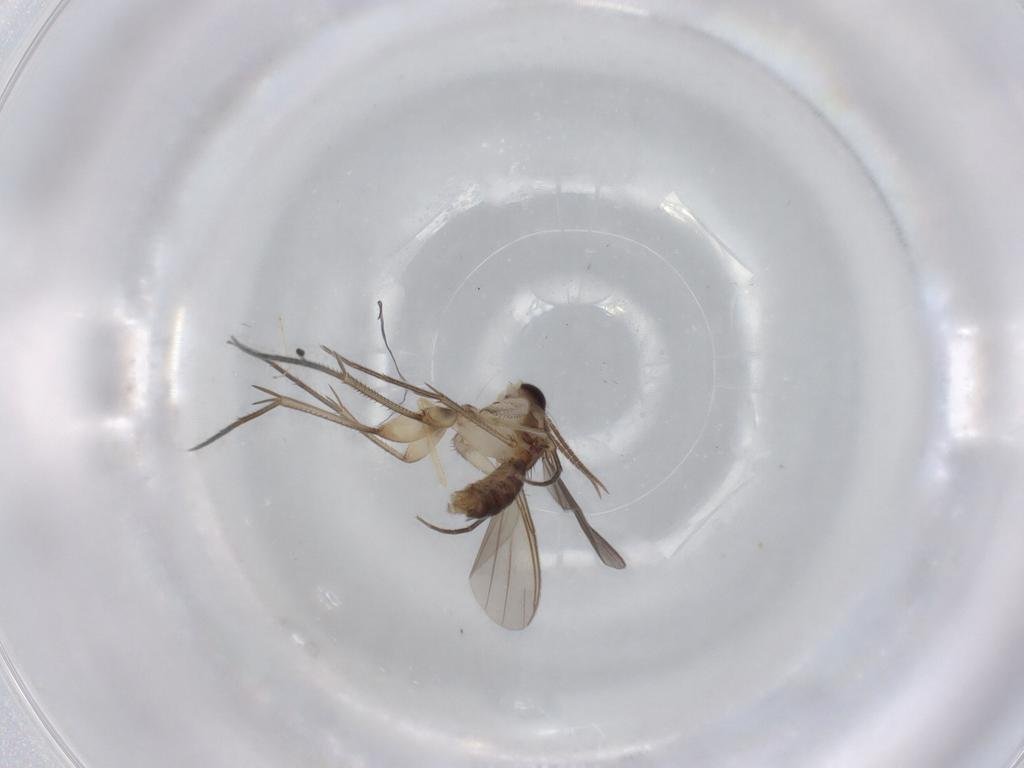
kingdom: Animalia
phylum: Arthropoda
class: Insecta
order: Diptera
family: Mycetophilidae
